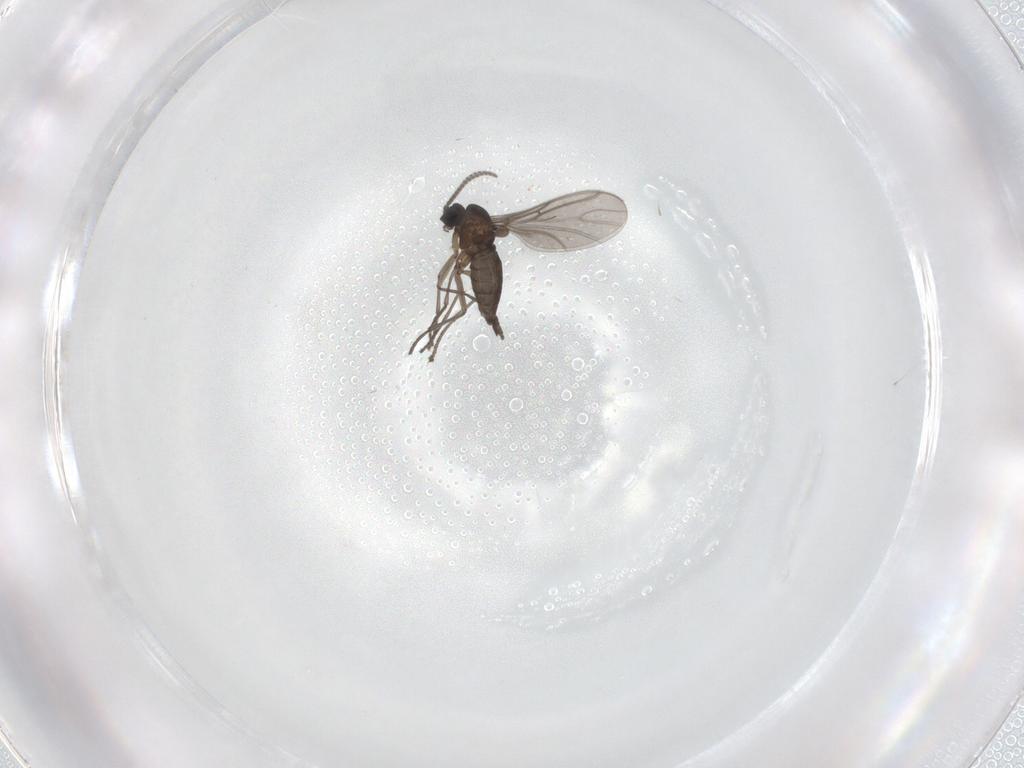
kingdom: Animalia
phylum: Arthropoda
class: Insecta
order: Diptera
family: Sciaridae
